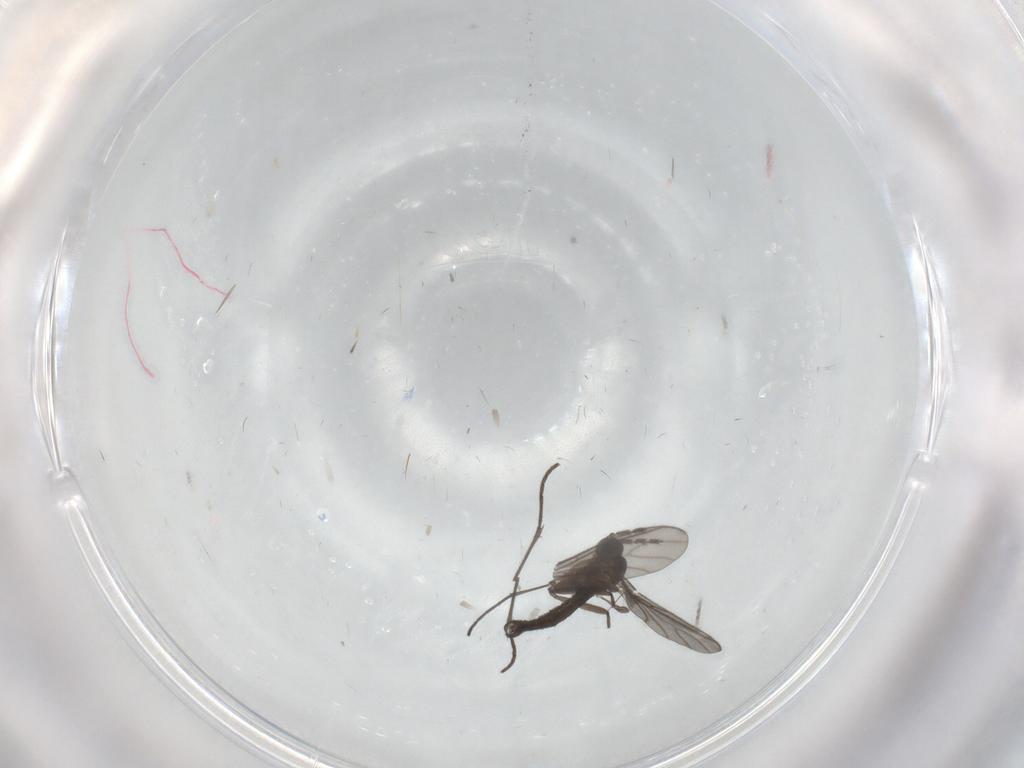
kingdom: Animalia
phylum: Arthropoda
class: Insecta
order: Diptera
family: Sciaridae
